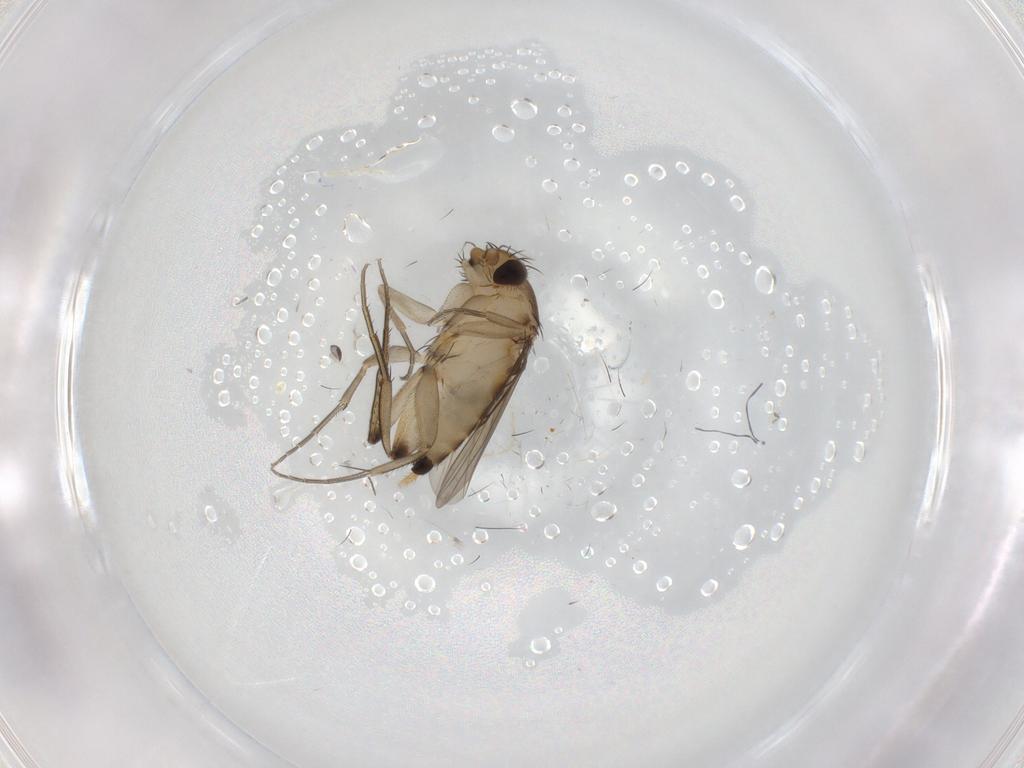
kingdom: Animalia
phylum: Arthropoda
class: Insecta
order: Diptera
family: Phoridae
